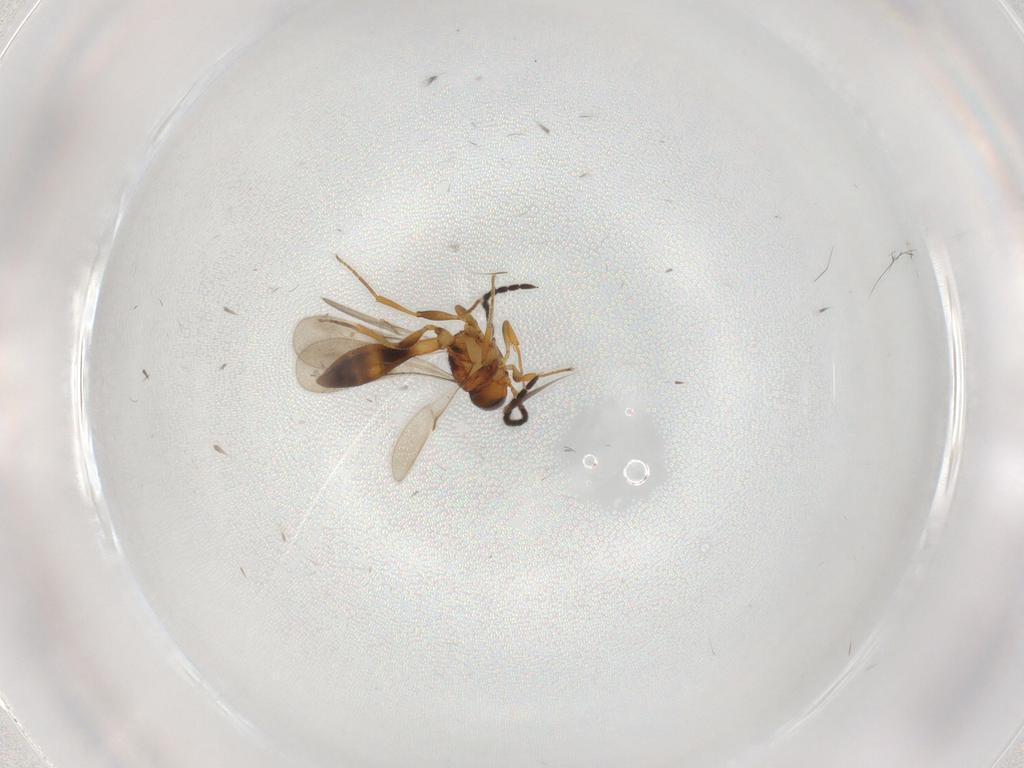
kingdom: Animalia
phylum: Arthropoda
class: Insecta
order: Hymenoptera
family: Scelionidae
